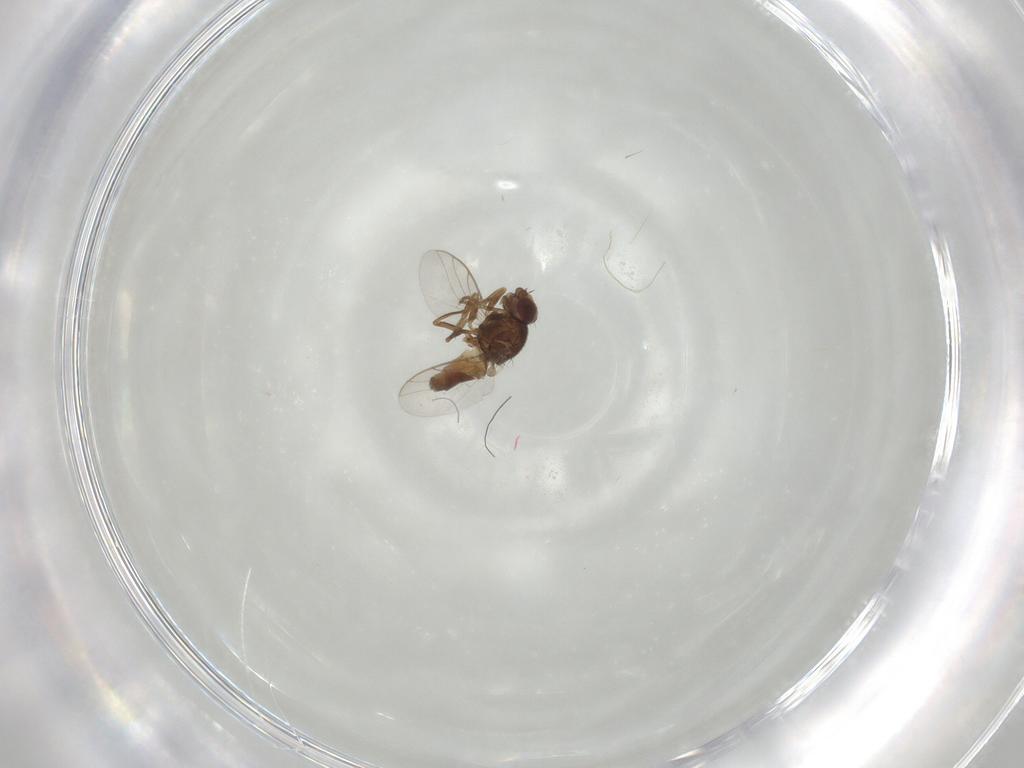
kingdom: Animalia
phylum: Arthropoda
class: Insecta
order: Diptera
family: Chloropidae
